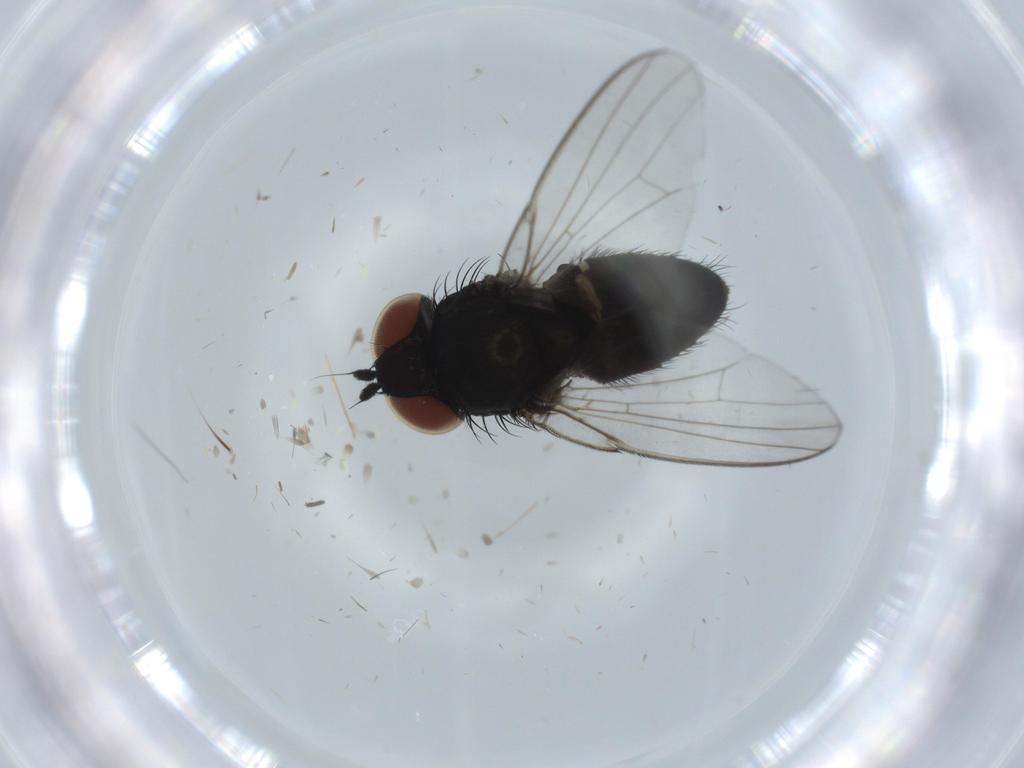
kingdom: Animalia
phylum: Arthropoda
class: Insecta
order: Diptera
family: Milichiidae
